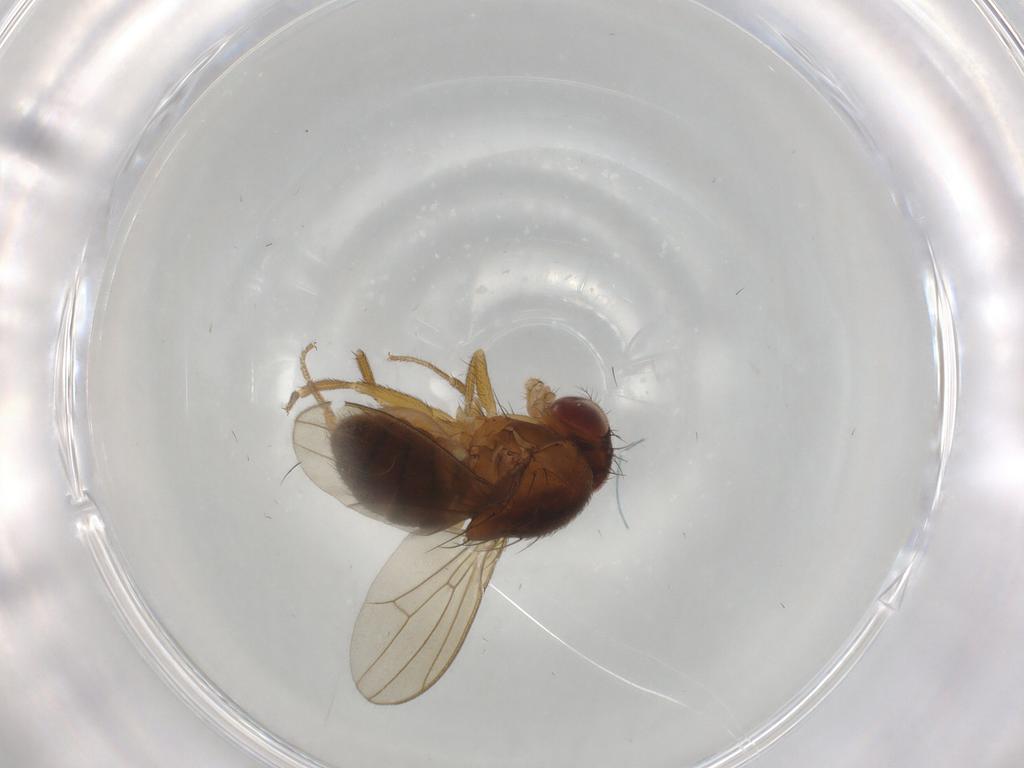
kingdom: Animalia
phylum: Arthropoda
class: Insecta
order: Diptera
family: Drosophilidae
